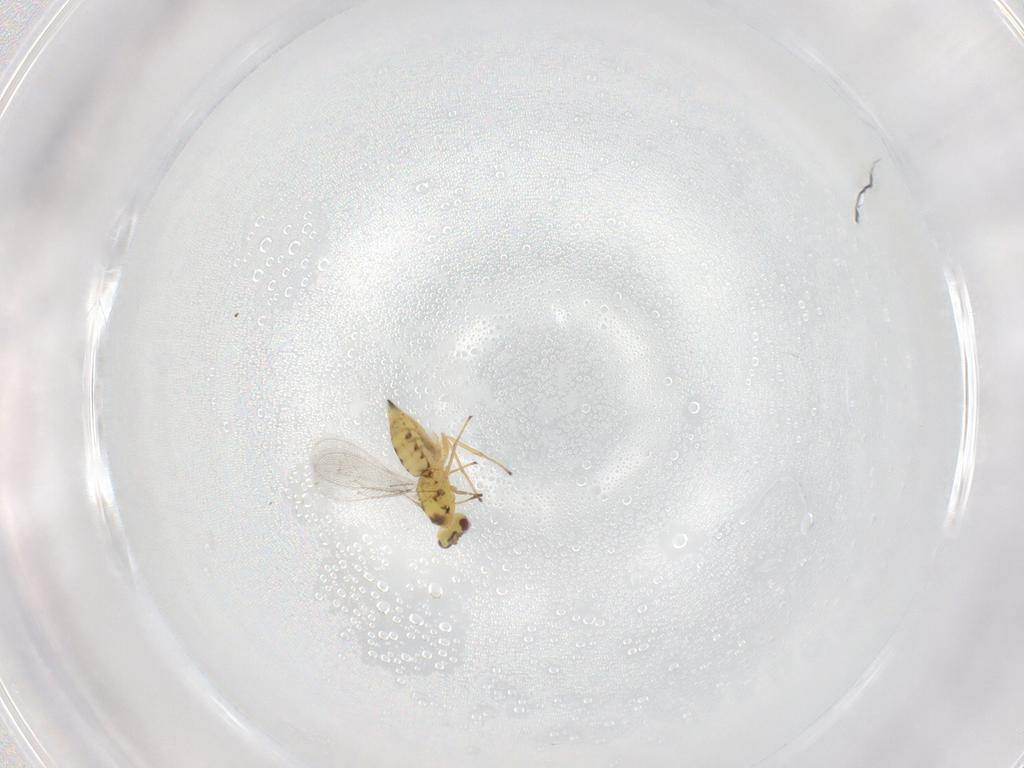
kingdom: Animalia
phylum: Arthropoda
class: Insecta
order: Hymenoptera
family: Eulophidae
